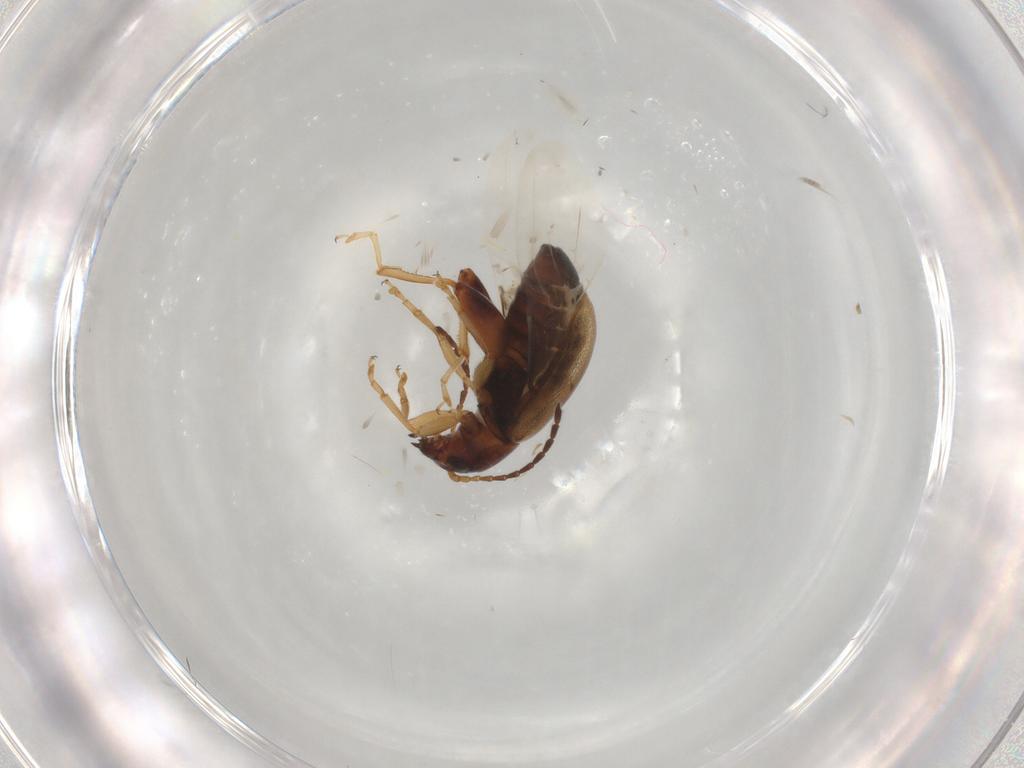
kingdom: Animalia
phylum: Arthropoda
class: Insecta
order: Coleoptera
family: Chrysomelidae
